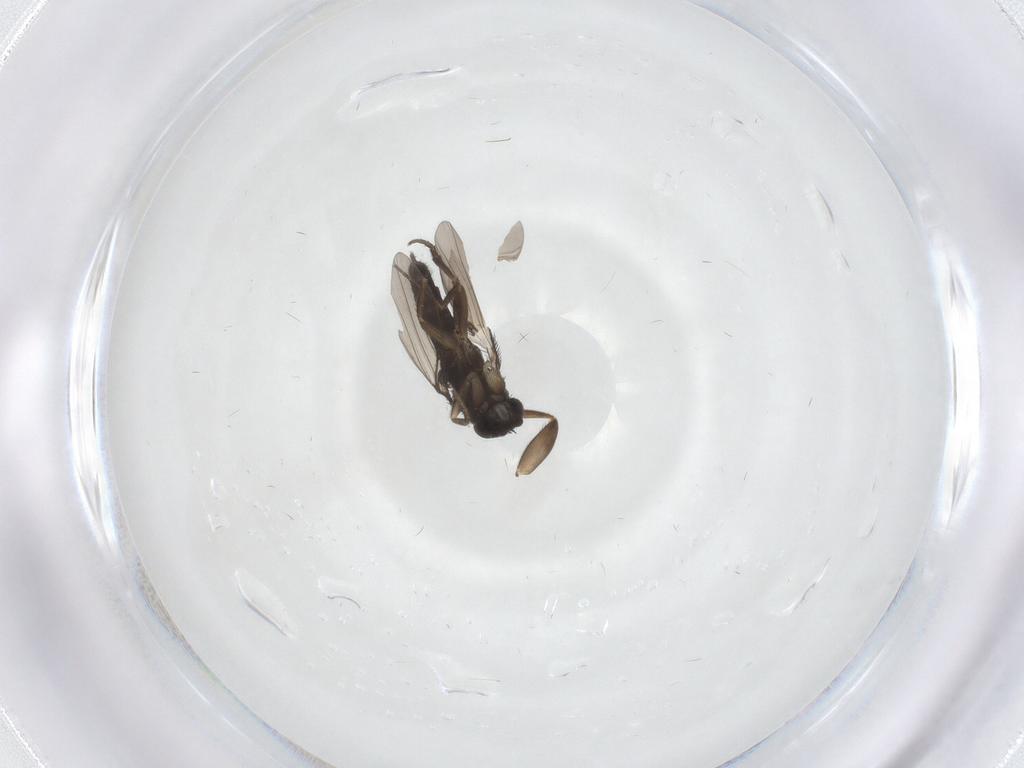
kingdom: Animalia
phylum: Arthropoda
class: Insecta
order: Diptera
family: Phoridae
